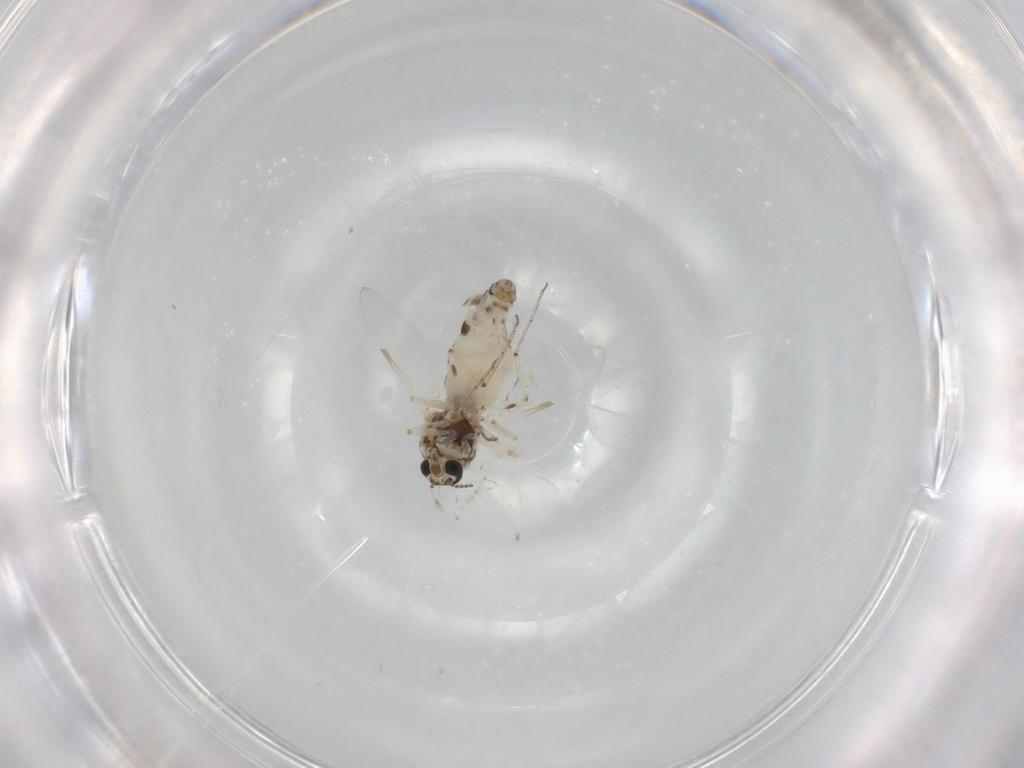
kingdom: Animalia
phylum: Arthropoda
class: Insecta
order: Diptera
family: Ceratopogonidae
